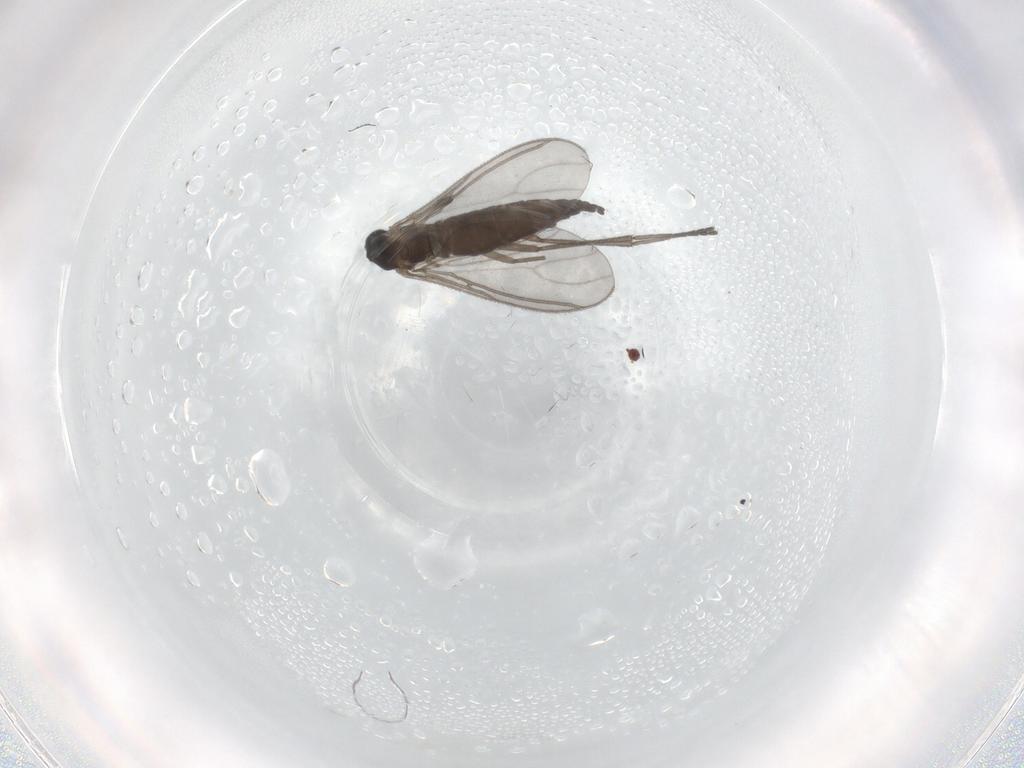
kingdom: Animalia
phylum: Arthropoda
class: Insecta
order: Diptera
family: Sciaridae
